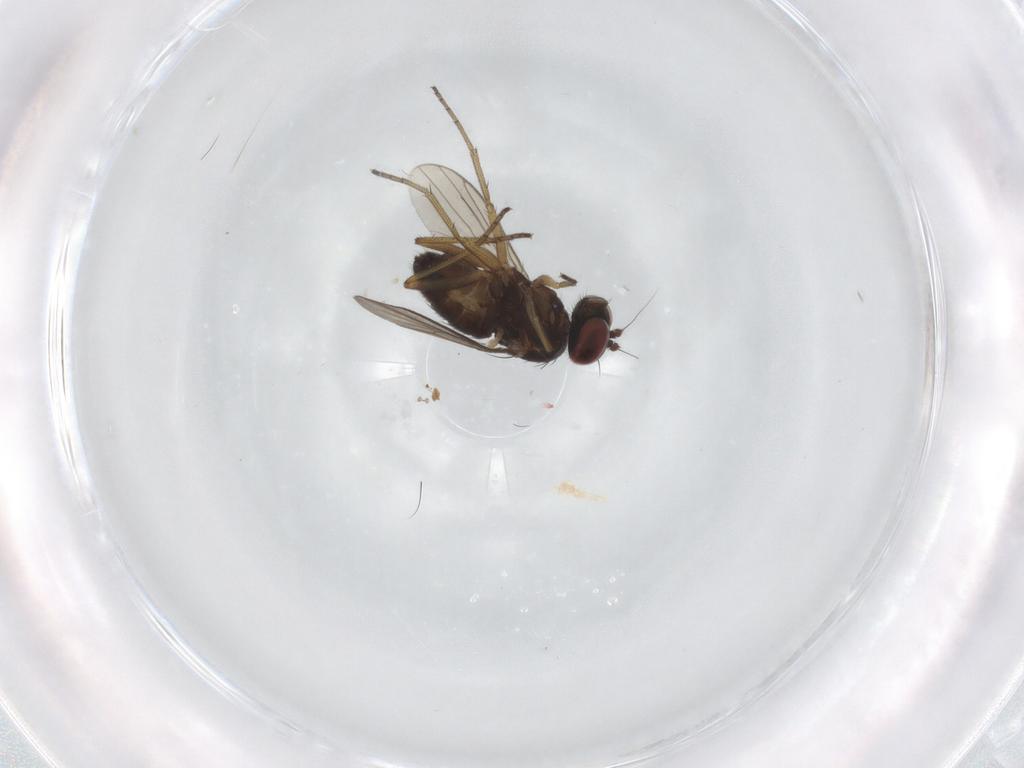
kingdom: Animalia
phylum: Arthropoda
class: Insecta
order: Diptera
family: Dolichopodidae
